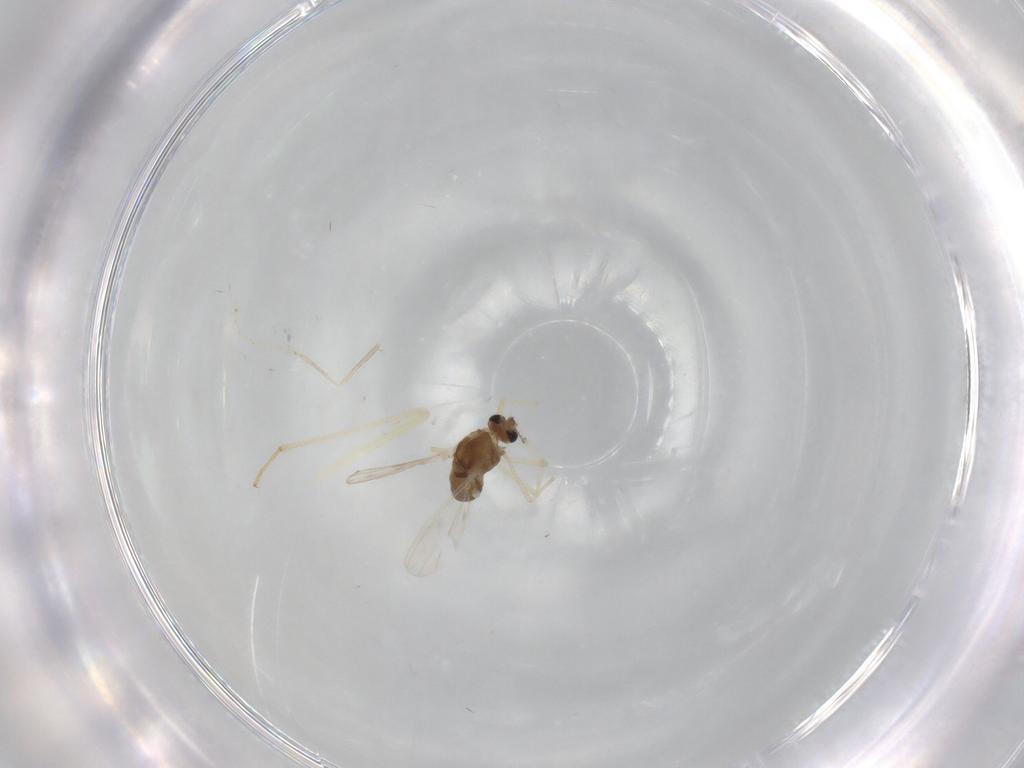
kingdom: Animalia
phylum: Arthropoda
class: Insecta
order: Diptera
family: Chironomidae
